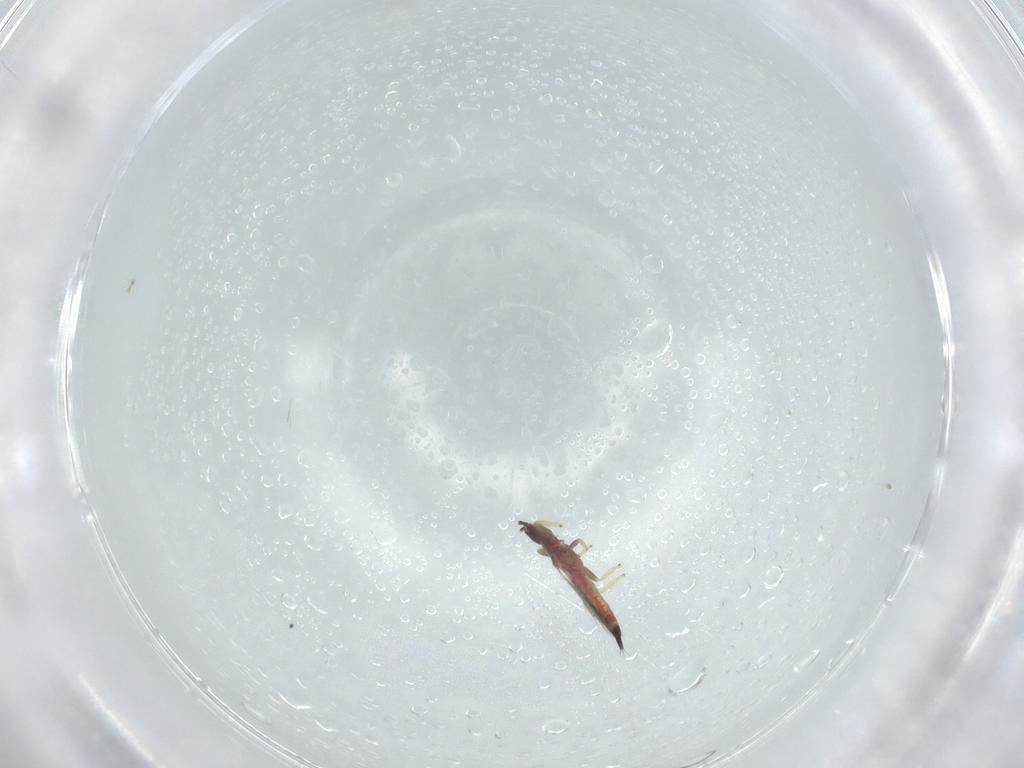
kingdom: Animalia
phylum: Arthropoda
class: Insecta
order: Thysanoptera
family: Phlaeothripidae
